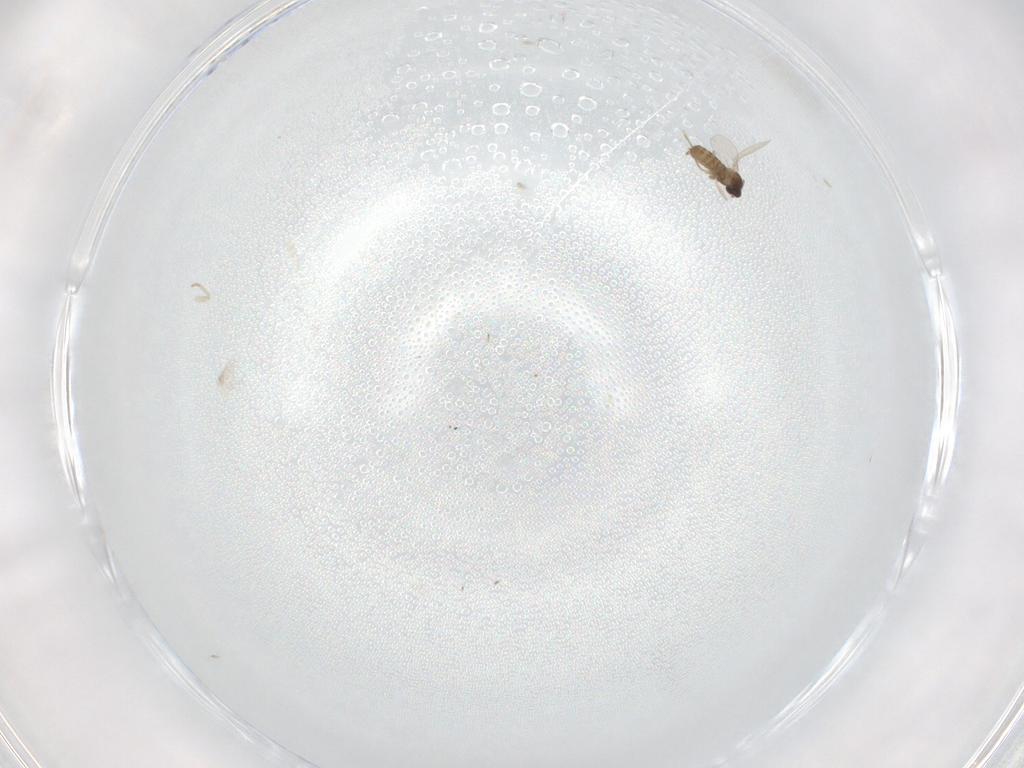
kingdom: Animalia
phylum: Arthropoda
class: Insecta
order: Diptera
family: Cecidomyiidae
